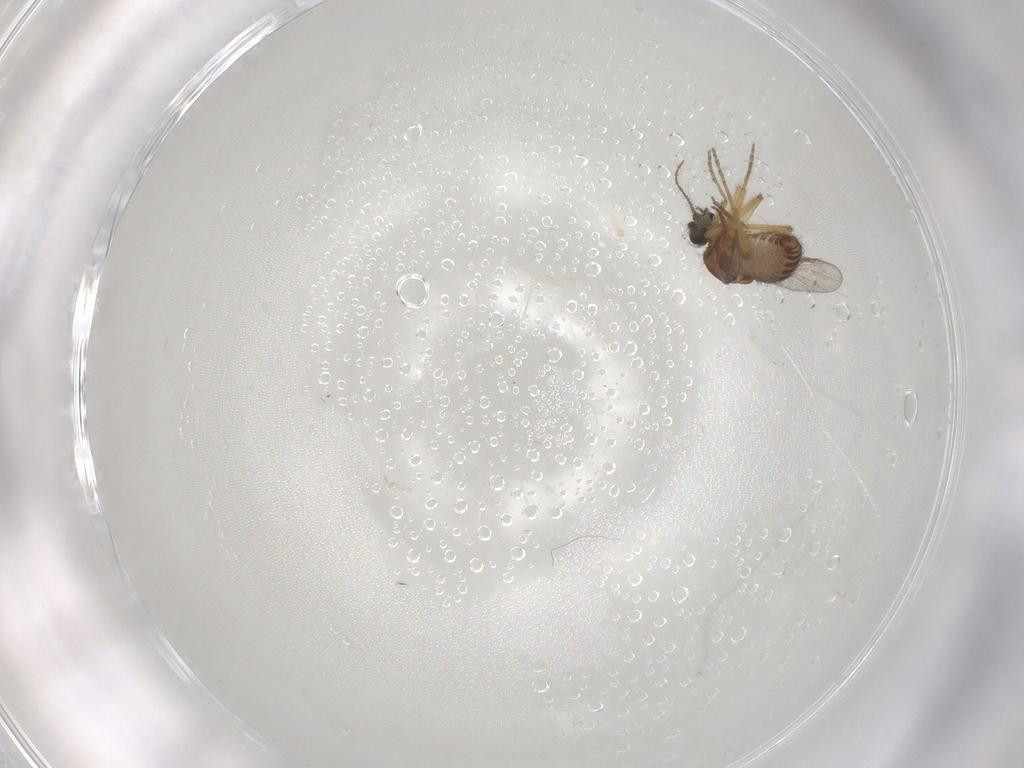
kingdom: Animalia
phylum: Arthropoda
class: Insecta
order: Diptera
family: Ceratopogonidae
